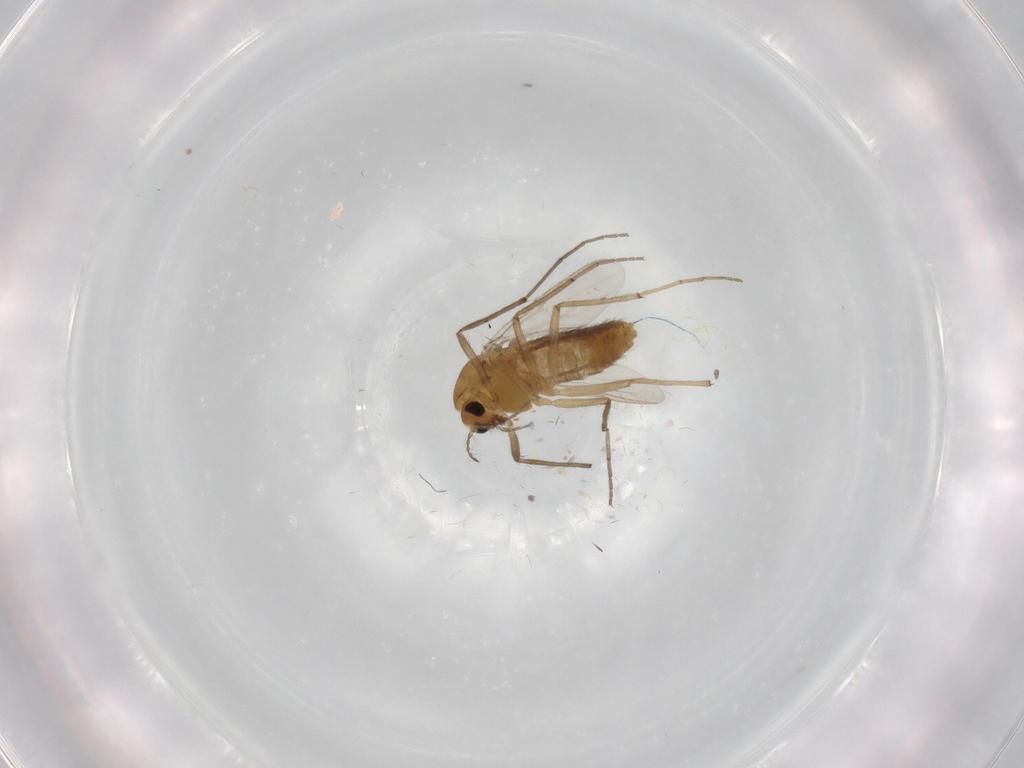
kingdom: Animalia
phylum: Arthropoda
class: Insecta
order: Diptera
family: Chironomidae
